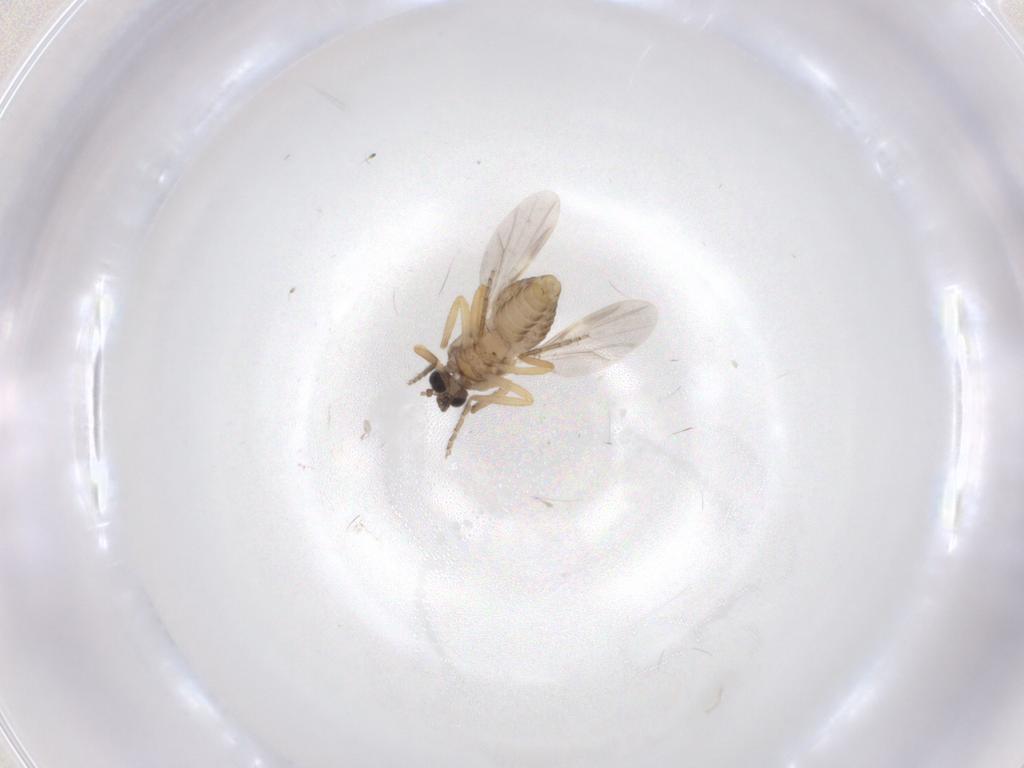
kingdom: Animalia
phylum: Arthropoda
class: Insecta
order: Diptera
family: Ceratopogonidae
